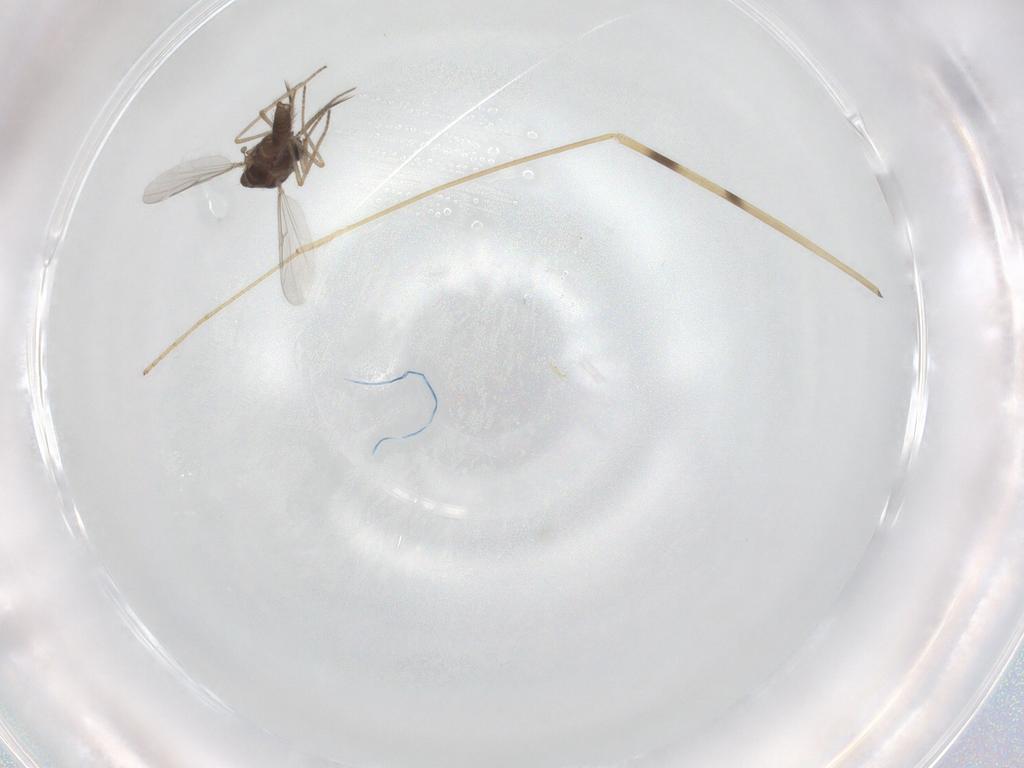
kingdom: Animalia
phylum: Arthropoda
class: Insecta
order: Diptera
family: Ceratopogonidae
